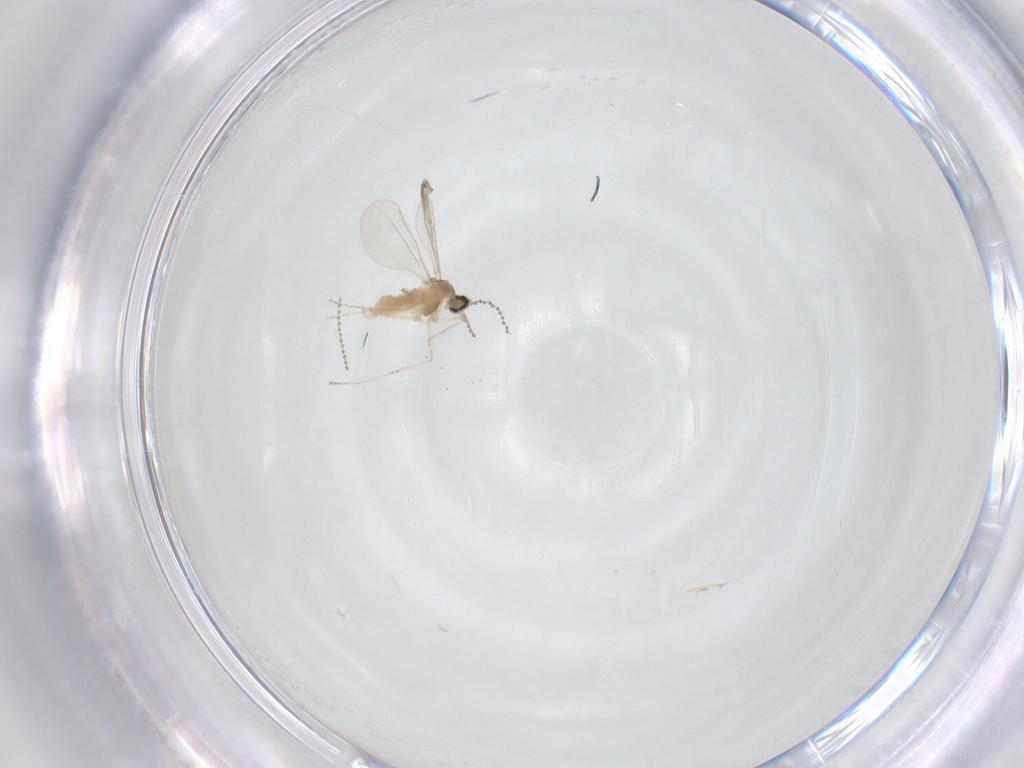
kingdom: Animalia
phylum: Arthropoda
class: Insecta
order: Diptera
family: Cecidomyiidae
